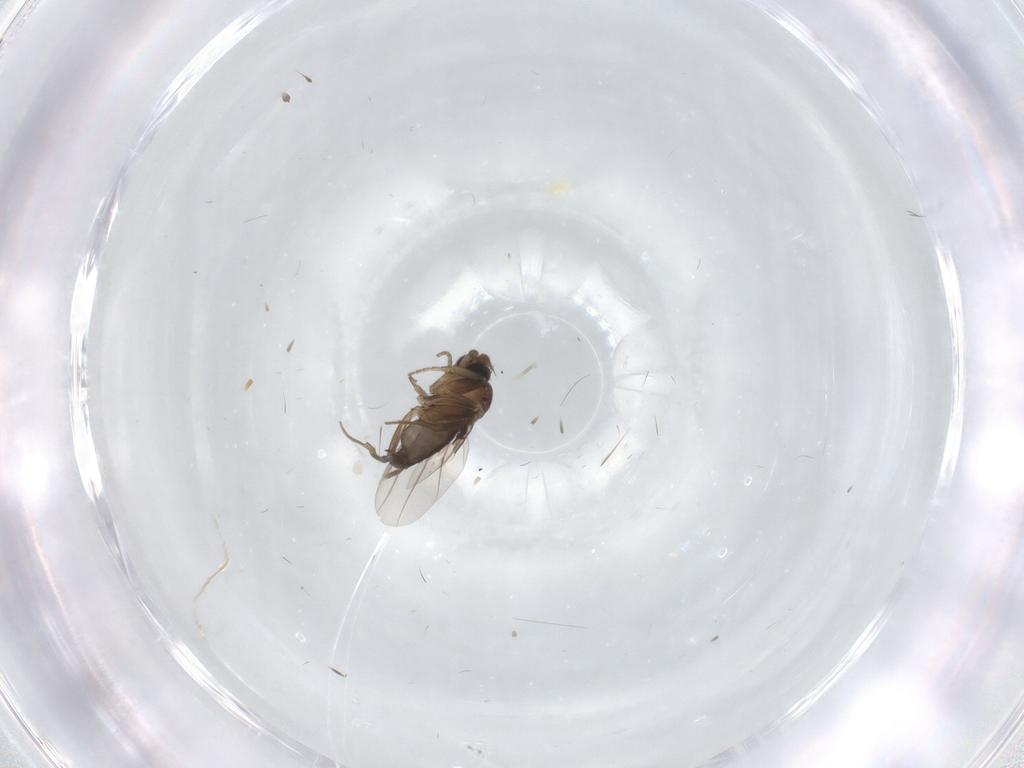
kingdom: Animalia
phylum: Arthropoda
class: Insecta
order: Diptera
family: Phoridae
